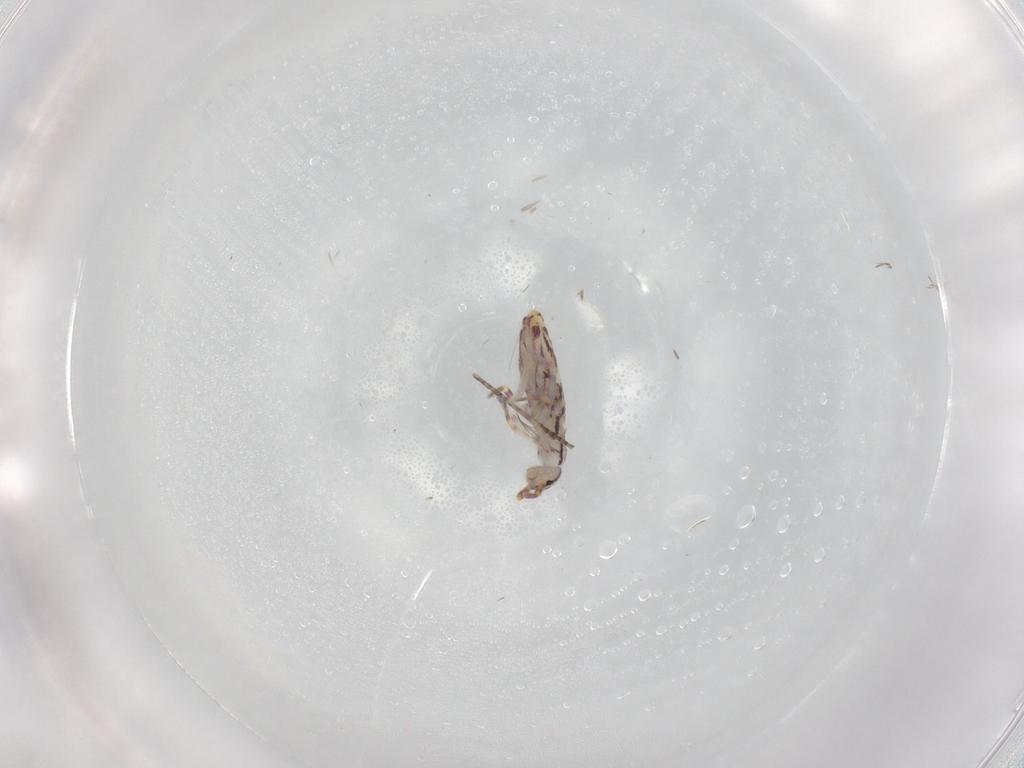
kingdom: Animalia
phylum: Arthropoda
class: Collembola
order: Entomobryomorpha
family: Entomobryidae
